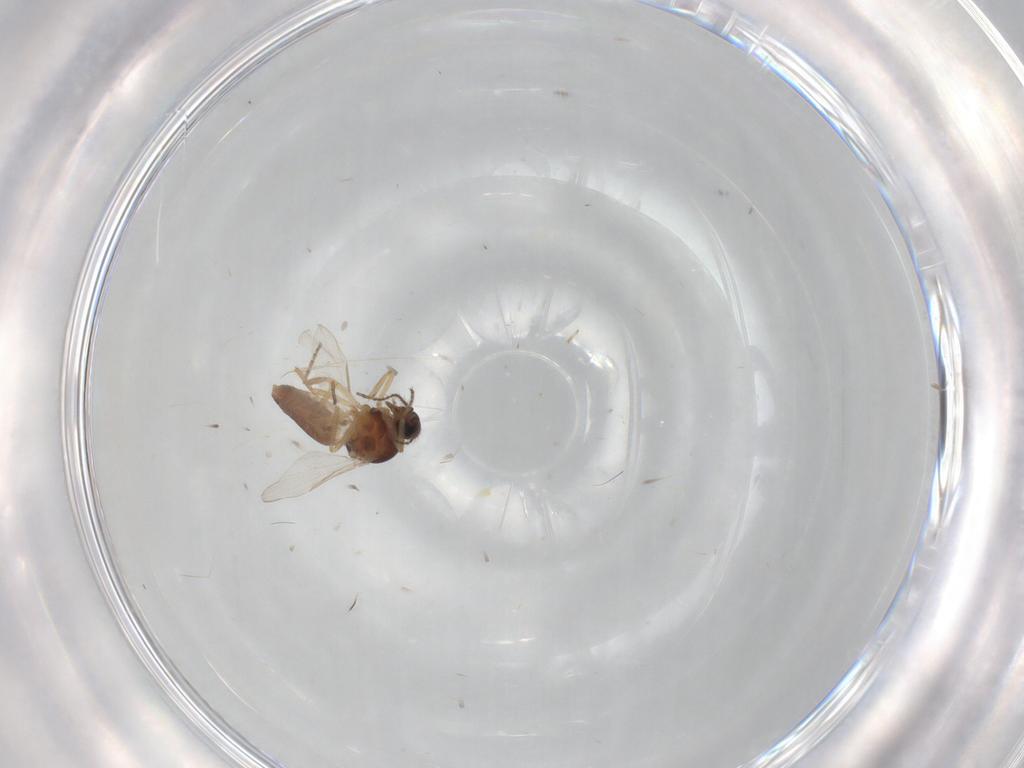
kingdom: Animalia
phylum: Arthropoda
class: Insecta
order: Diptera
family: Ceratopogonidae
